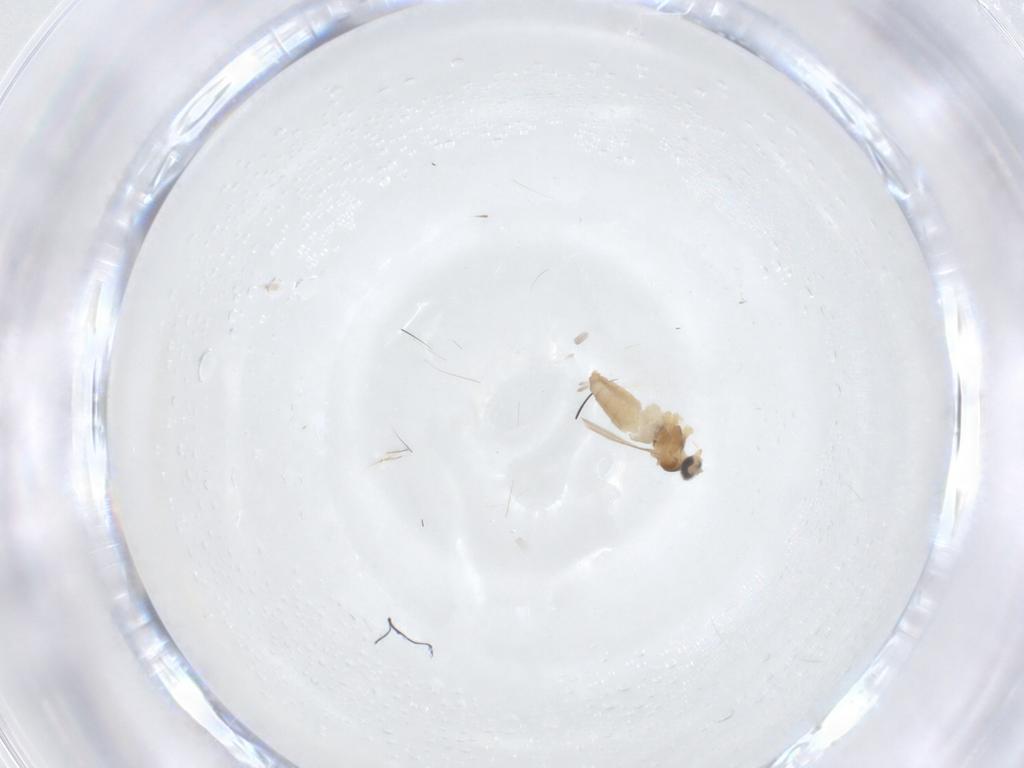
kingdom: Animalia
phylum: Arthropoda
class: Insecta
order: Diptera
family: Cecidomyiidae
